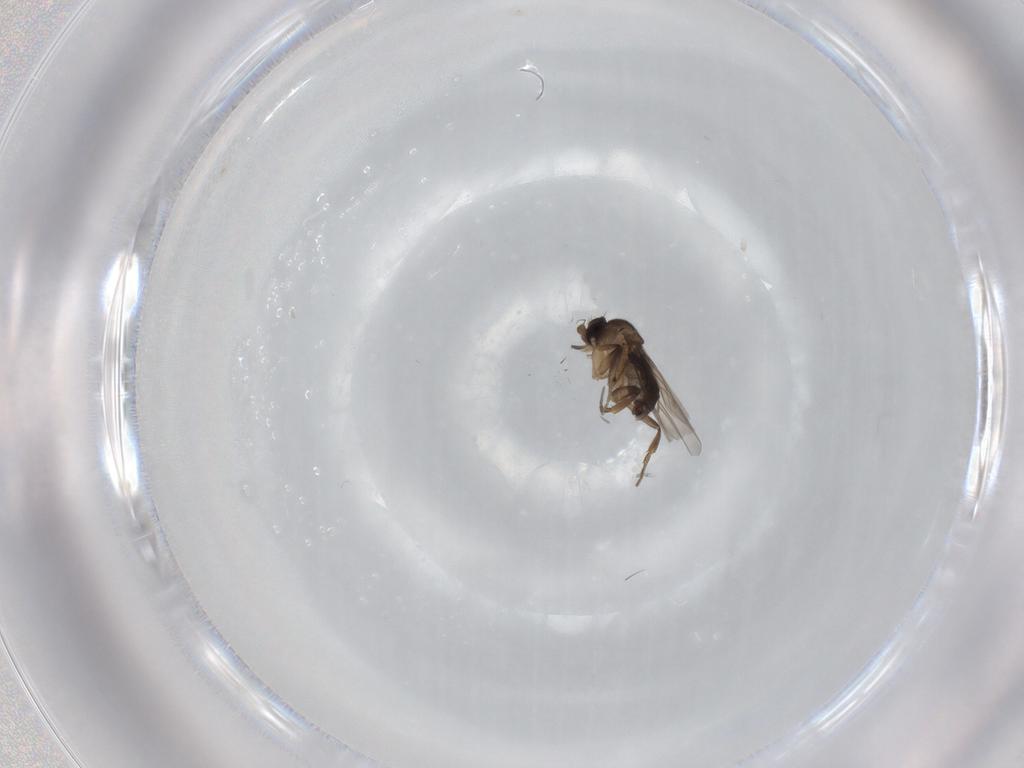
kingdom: Animalia
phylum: Arthropoda
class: Insecta
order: Diptera
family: Phoridae
